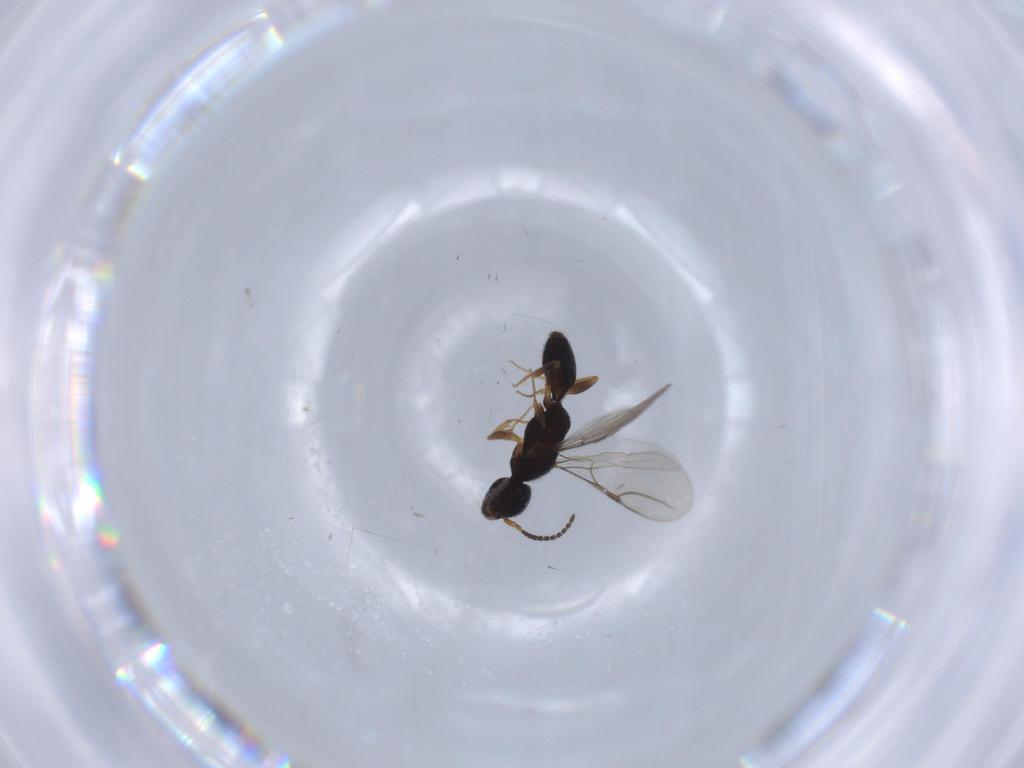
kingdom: Animalia
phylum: Arthropoda
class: Insecta
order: Hymenoptera
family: Bethylidae
